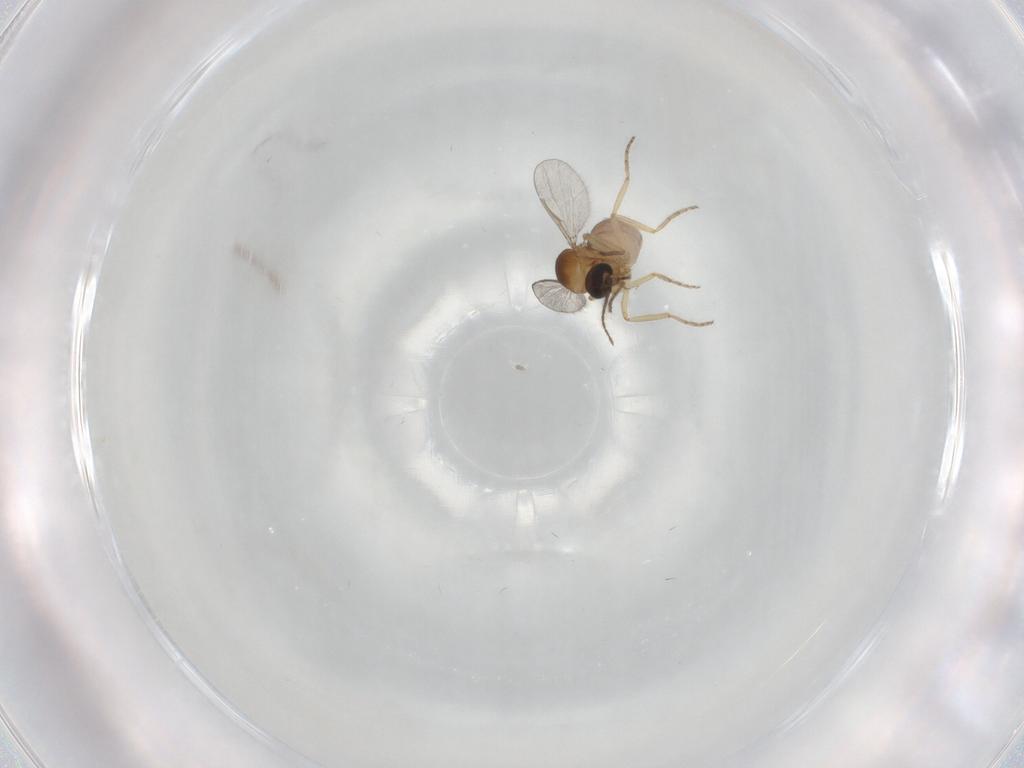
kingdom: Animalia
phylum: Arthropoda
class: Insecta
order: Diptera
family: Ceratopogonidae
